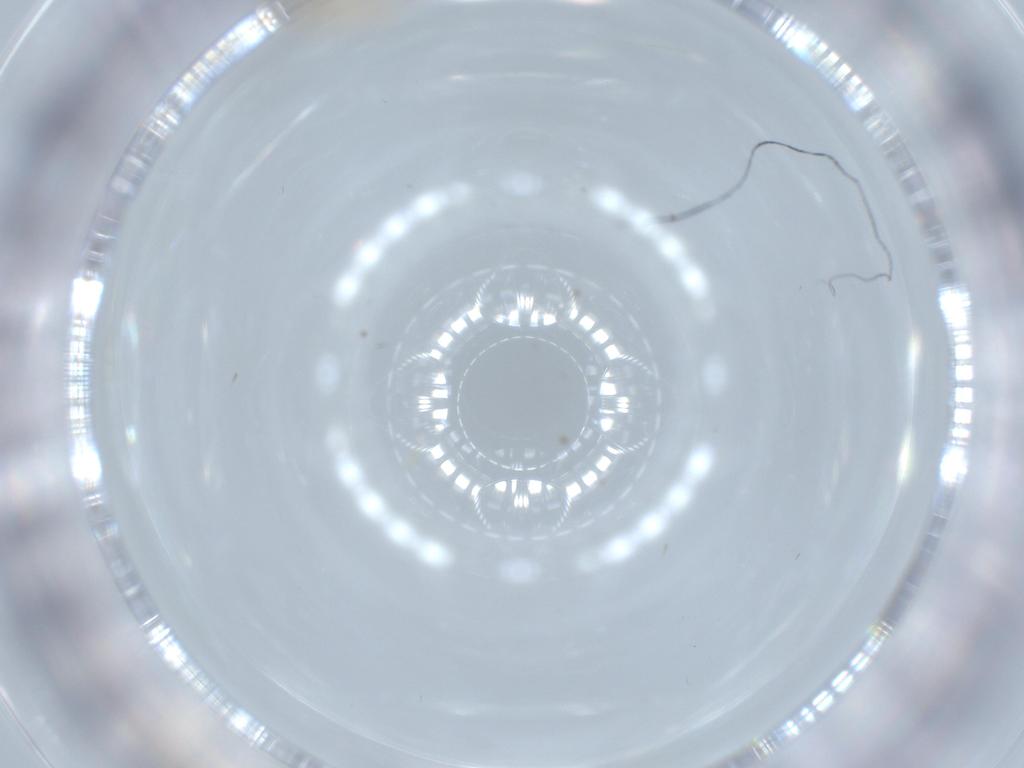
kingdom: Animalia
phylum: Arthropoda
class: Insecta
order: Diptera
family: Cecidomyiidae
